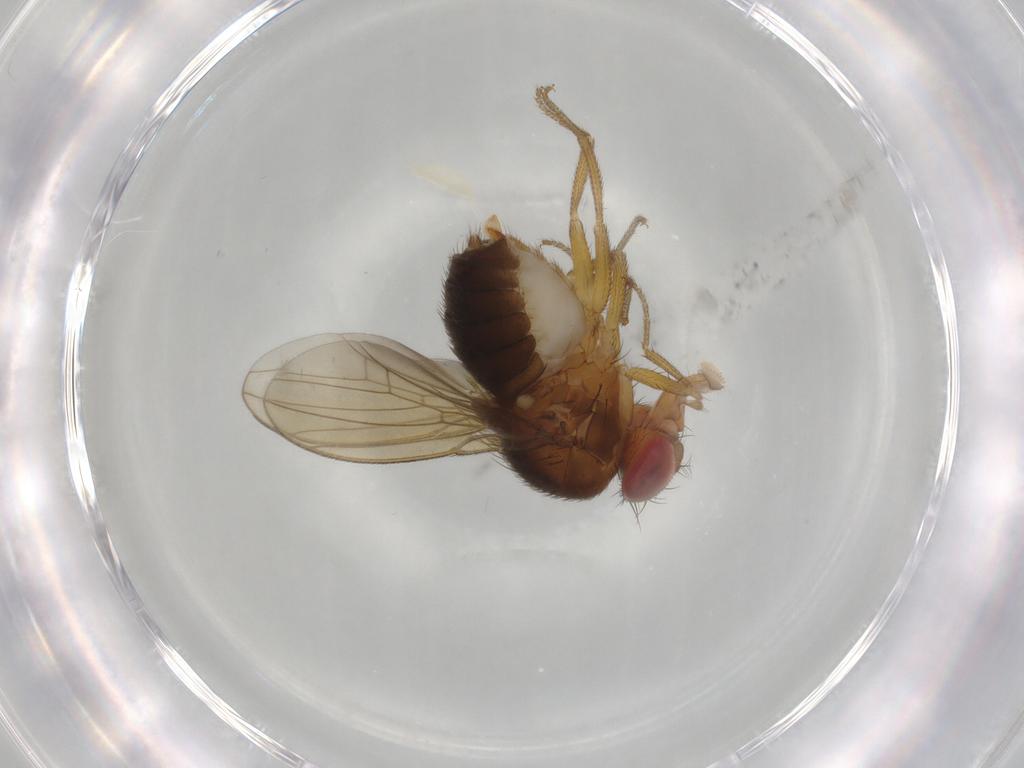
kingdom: Animalia
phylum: Arthropoda
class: Insecta
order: Diptera
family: Drosophilidae
